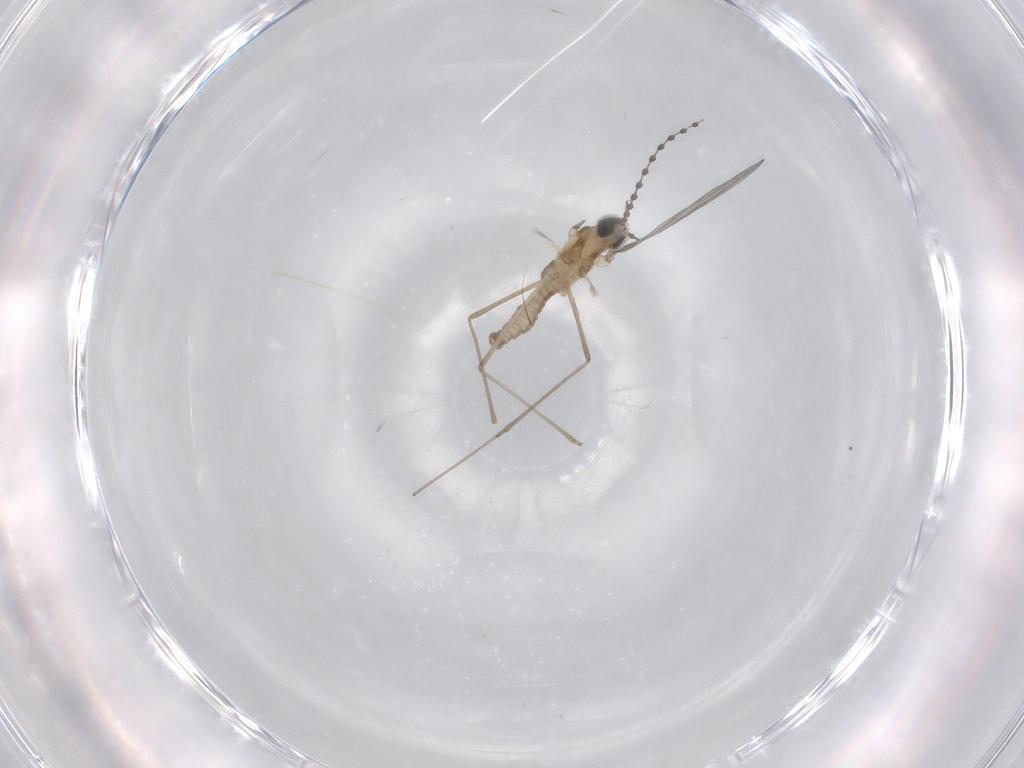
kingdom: Animalia
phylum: Arthropoda
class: Insecta
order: Diptera
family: Cecidomyiidae
